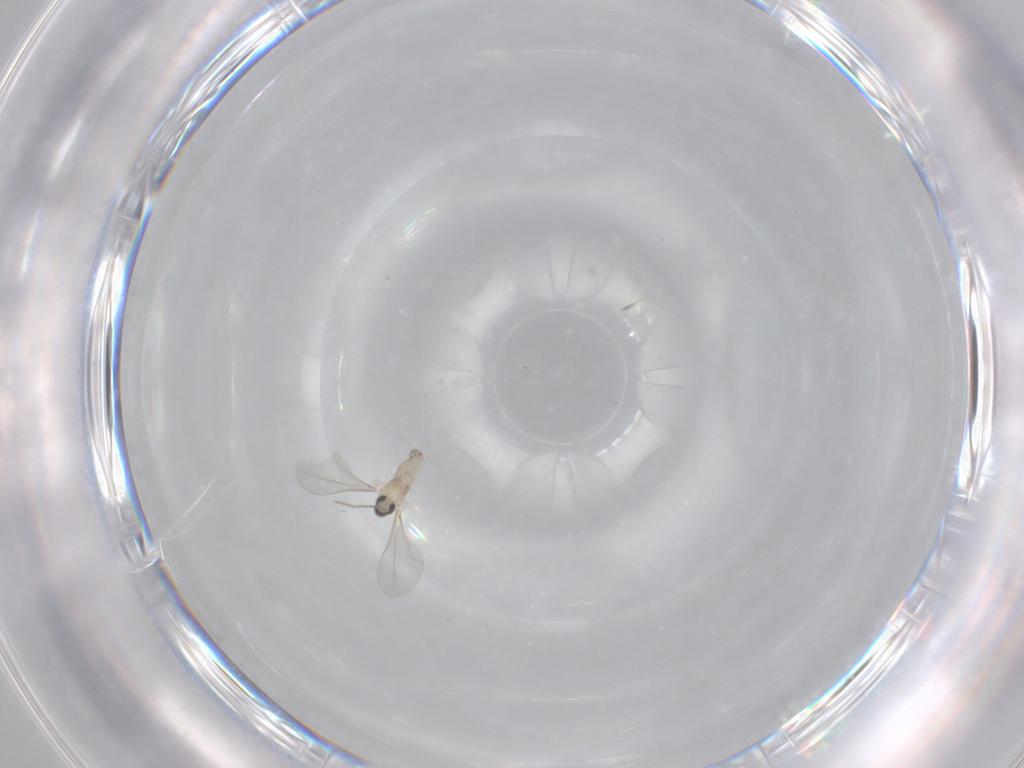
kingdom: Animalia
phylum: Arthropoda
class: Insecta
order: Diptera
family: Cecidomyiidae
